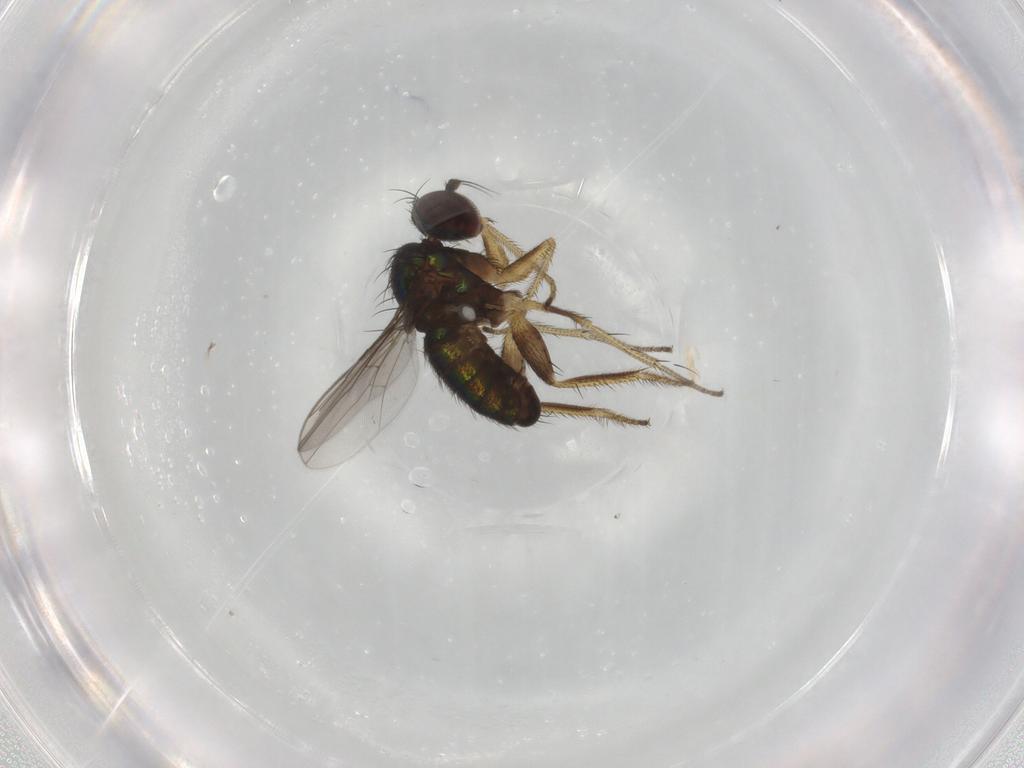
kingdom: Animalia
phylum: Arthropoda
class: Insecta
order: Diptera
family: Dolichopodidae
